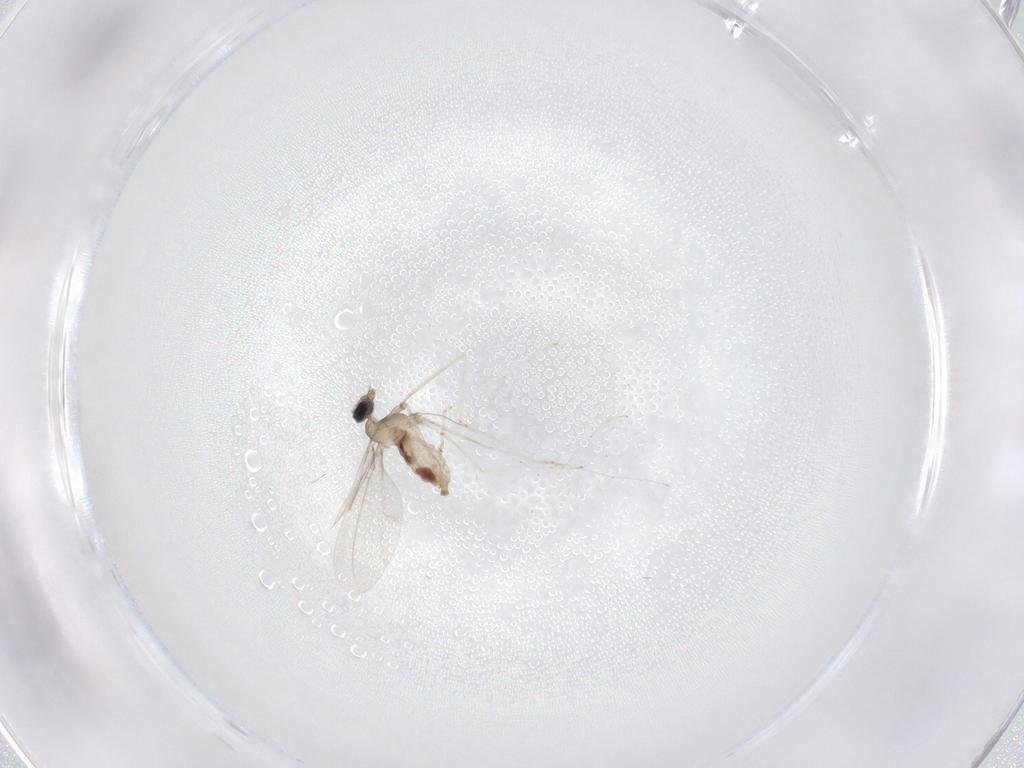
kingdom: Animalia
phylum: Arthropoda
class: Insecta
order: Diptera
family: Cecidomyiidae
